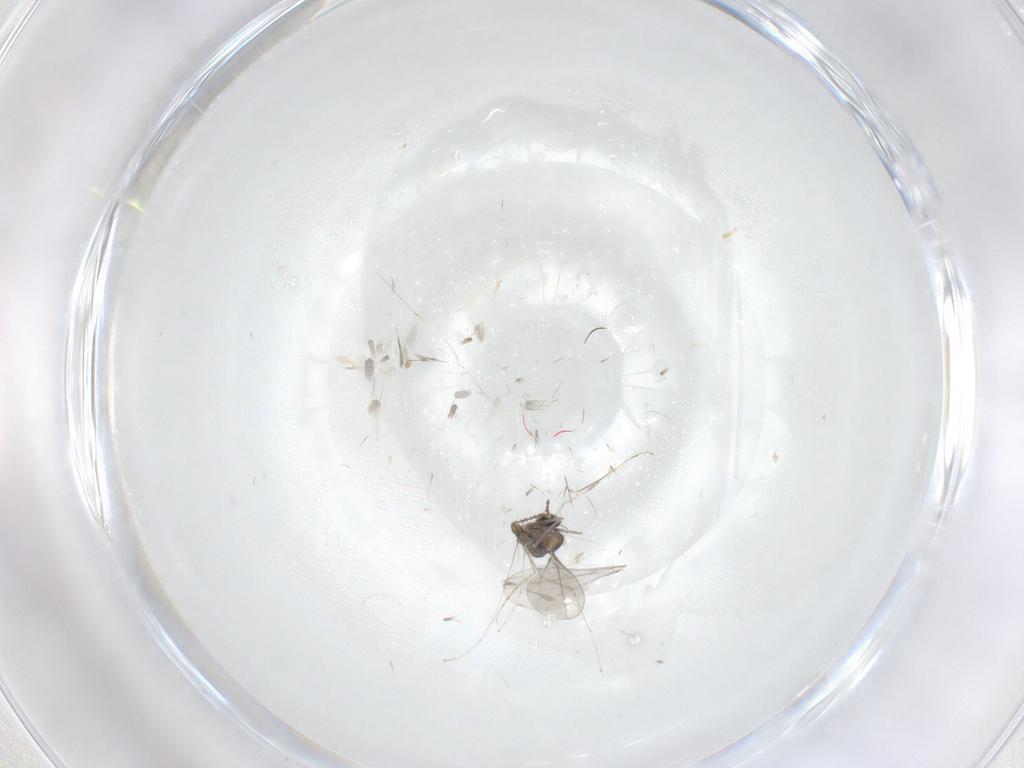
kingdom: Animalia
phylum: Arthropoda
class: Insecta
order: Diptera
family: Cecidomyiidae
